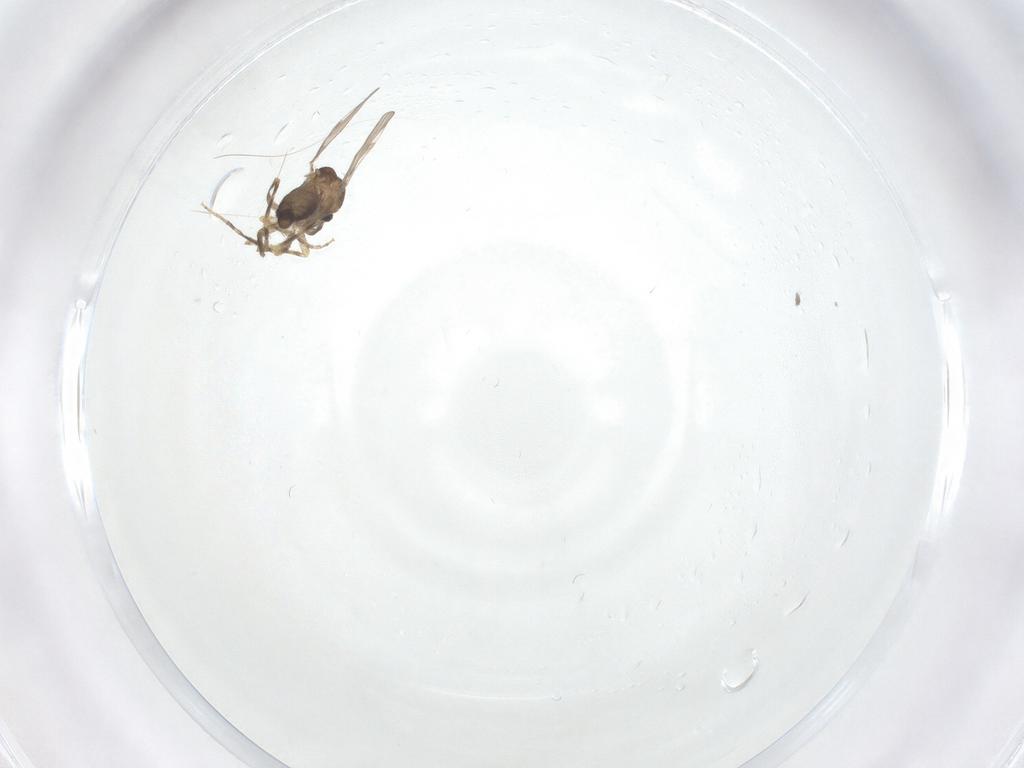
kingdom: Animalia
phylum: Arthropoda
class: Insecta
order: Diptera
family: Ceratopogonidae
